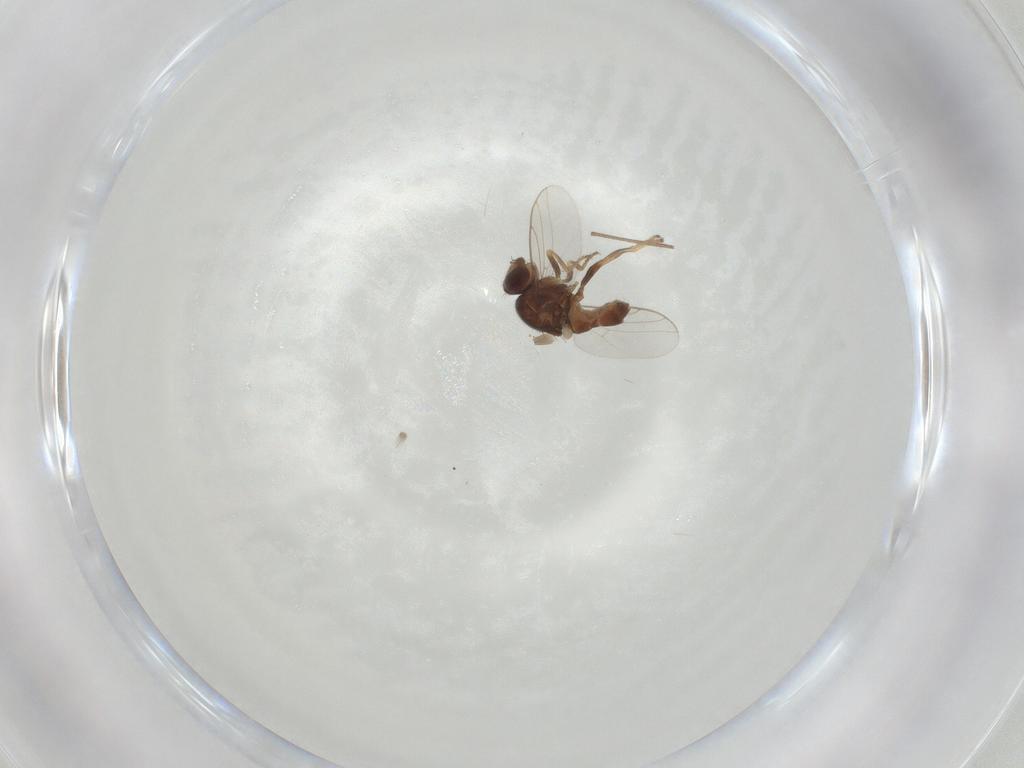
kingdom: Animalia
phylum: Arthropoda
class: Insecta
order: Diptera
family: Chloropidae
